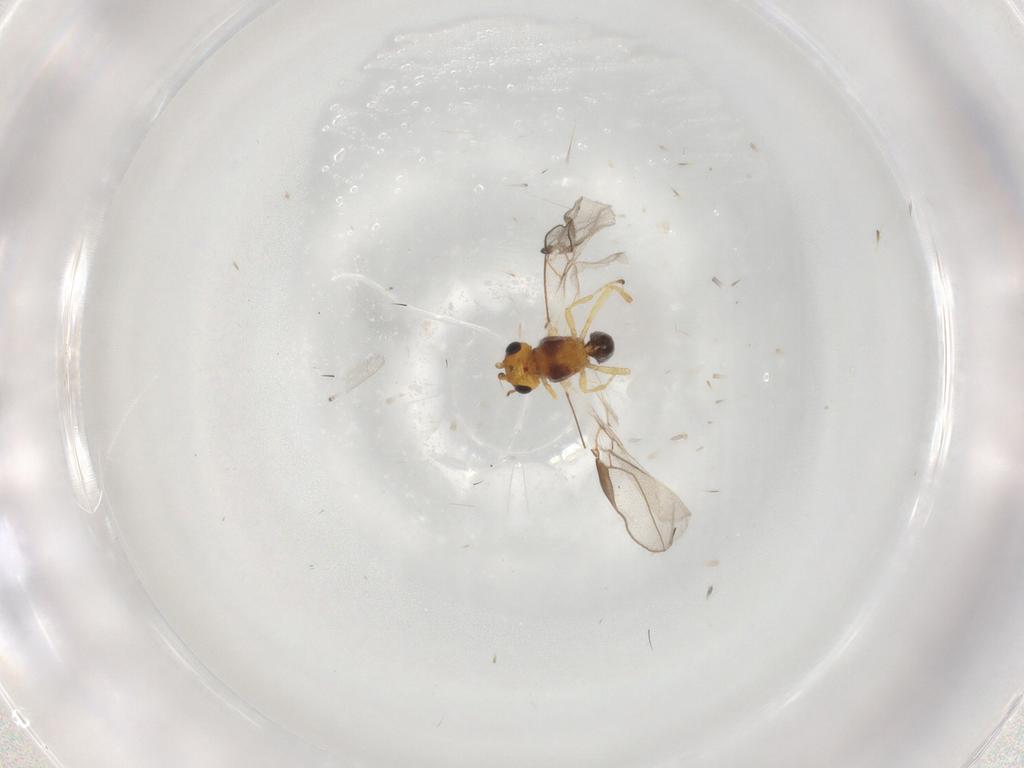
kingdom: Animalia
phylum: Arthropoda
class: Insecta
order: Hymenoptera
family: Braconidae
